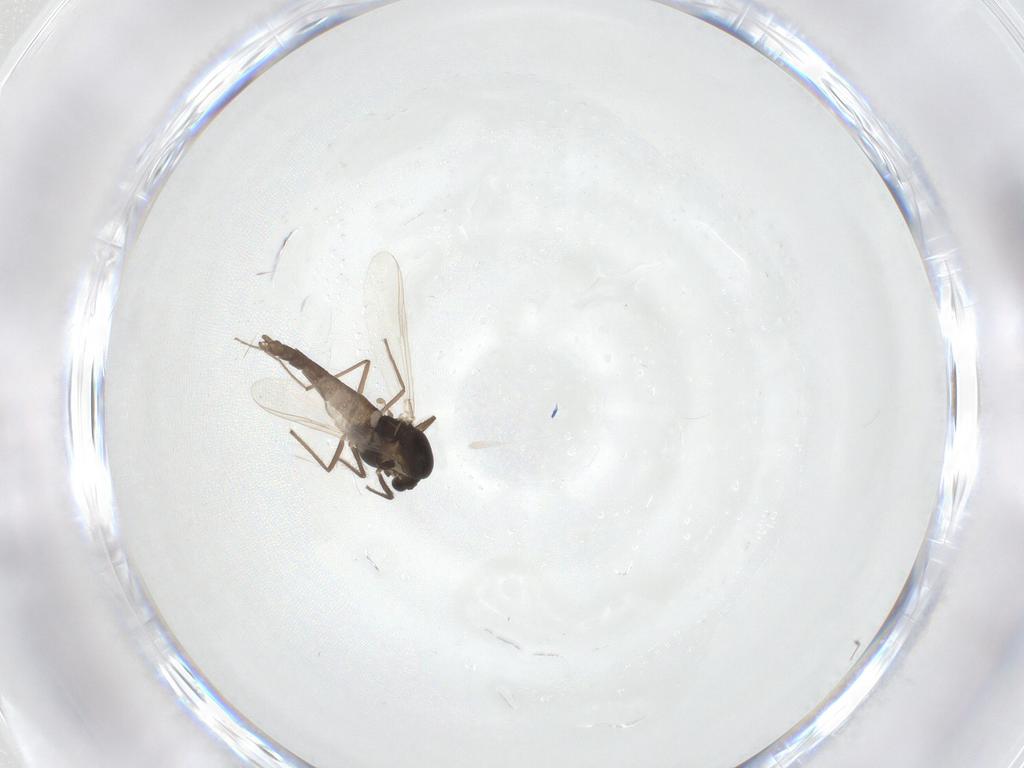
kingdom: Animalia
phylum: Arthropoda
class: Insecta
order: Diptera
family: Chironomidae
